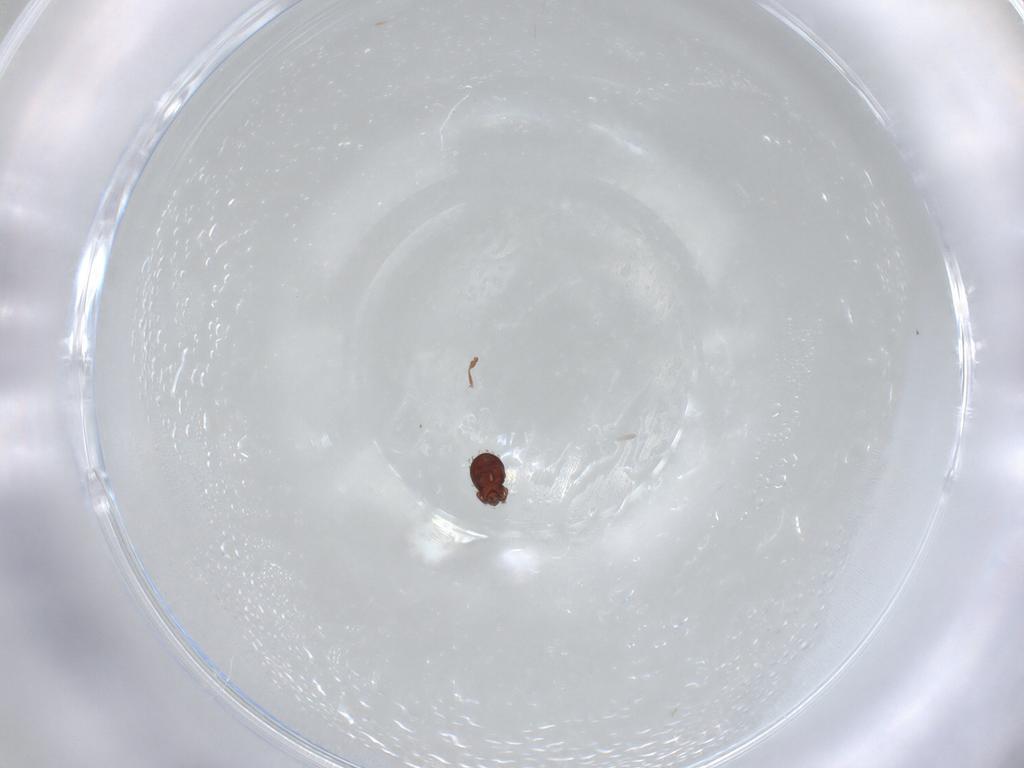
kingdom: Animalia
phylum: Arthropoda
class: Arachnida
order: Sarcoptiformes
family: Scheloribatidae
